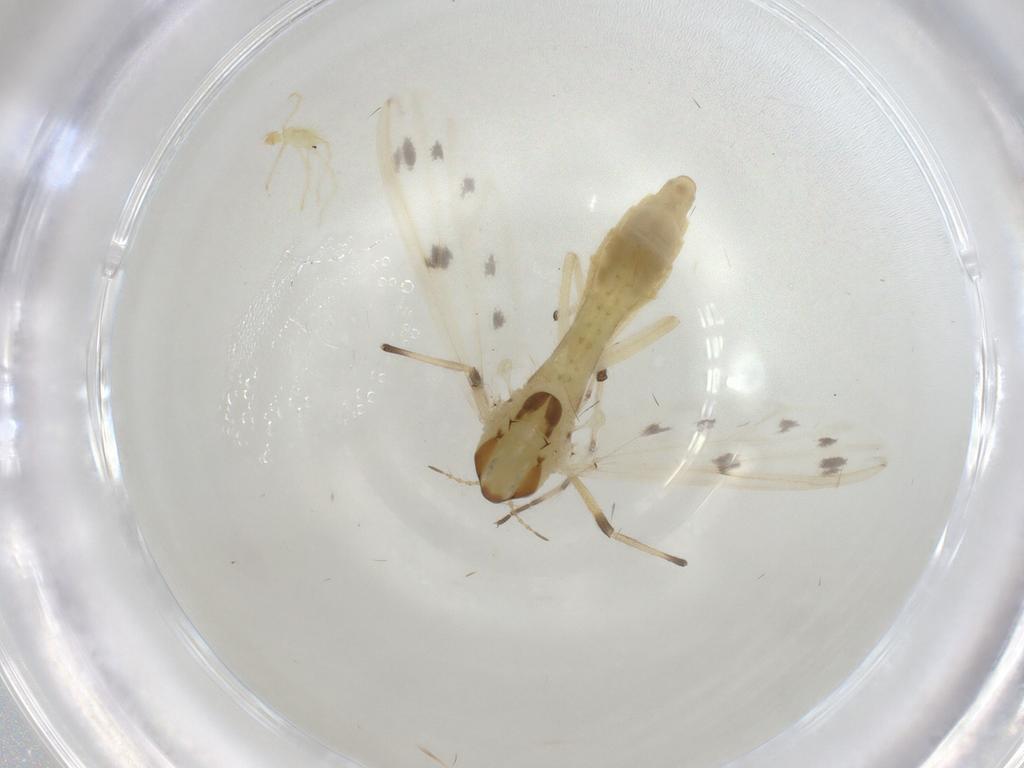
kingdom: Animalia
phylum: Arthropoda
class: Insecta
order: Diptera
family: Chironomidae
